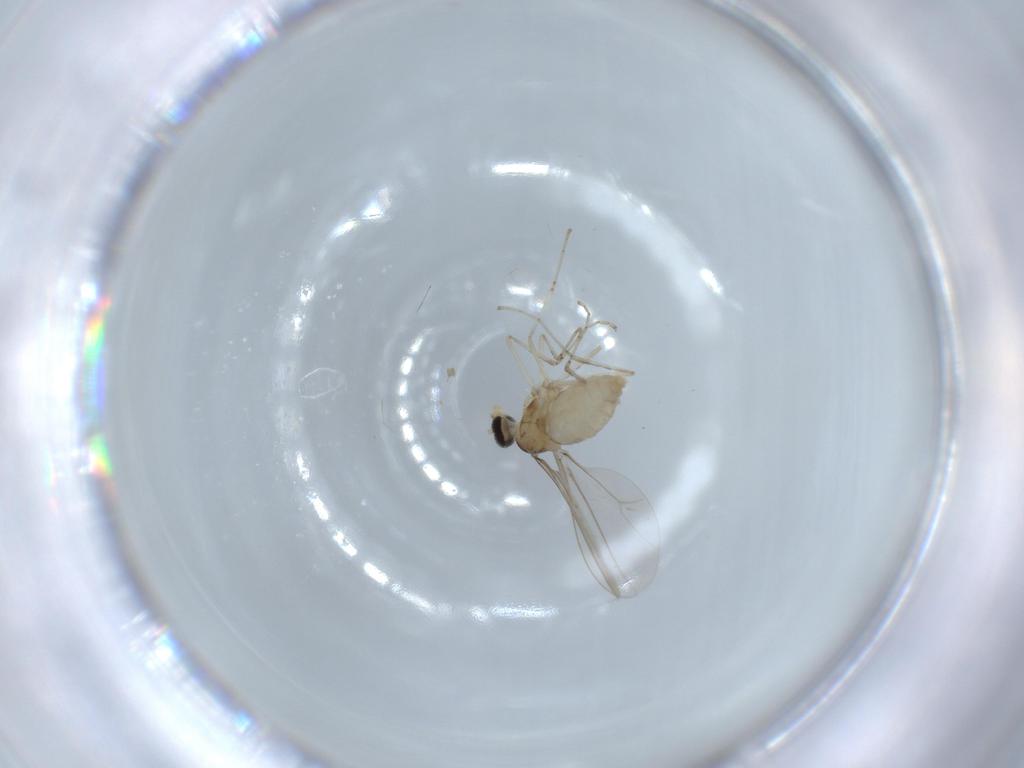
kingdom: Animalia
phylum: Arthropoda
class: Insecta
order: Diptera
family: Cecidomyiidae
